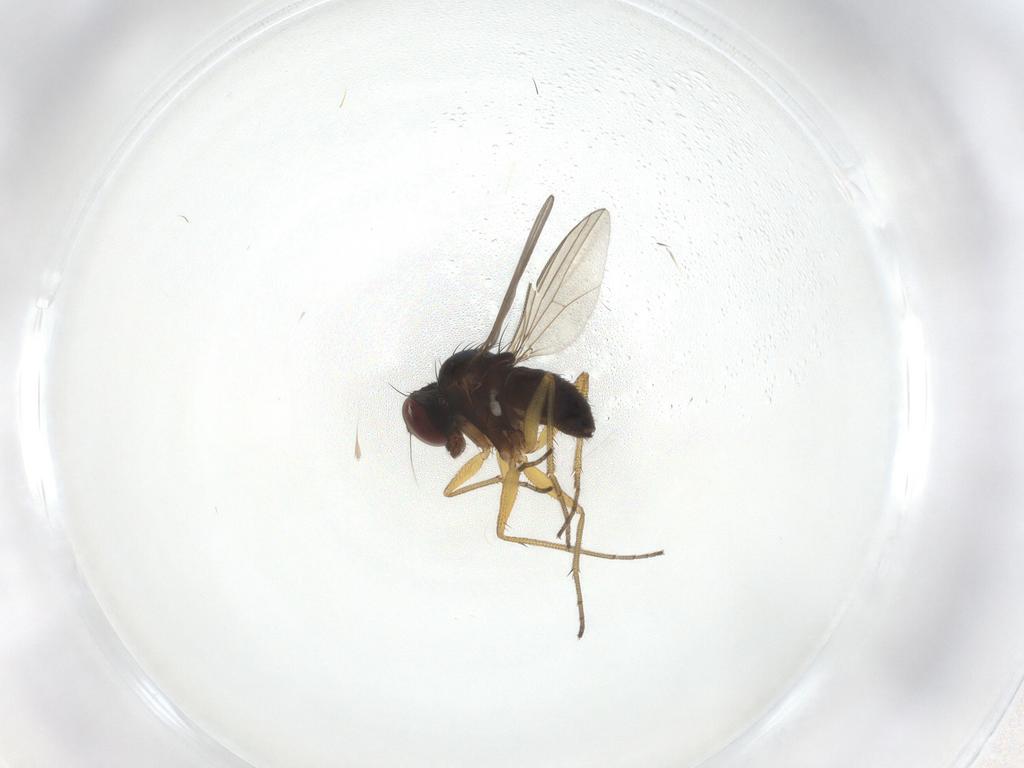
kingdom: Animalia
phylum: Arthropoda
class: Insecta
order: Diptera
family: Dolichopodidae
